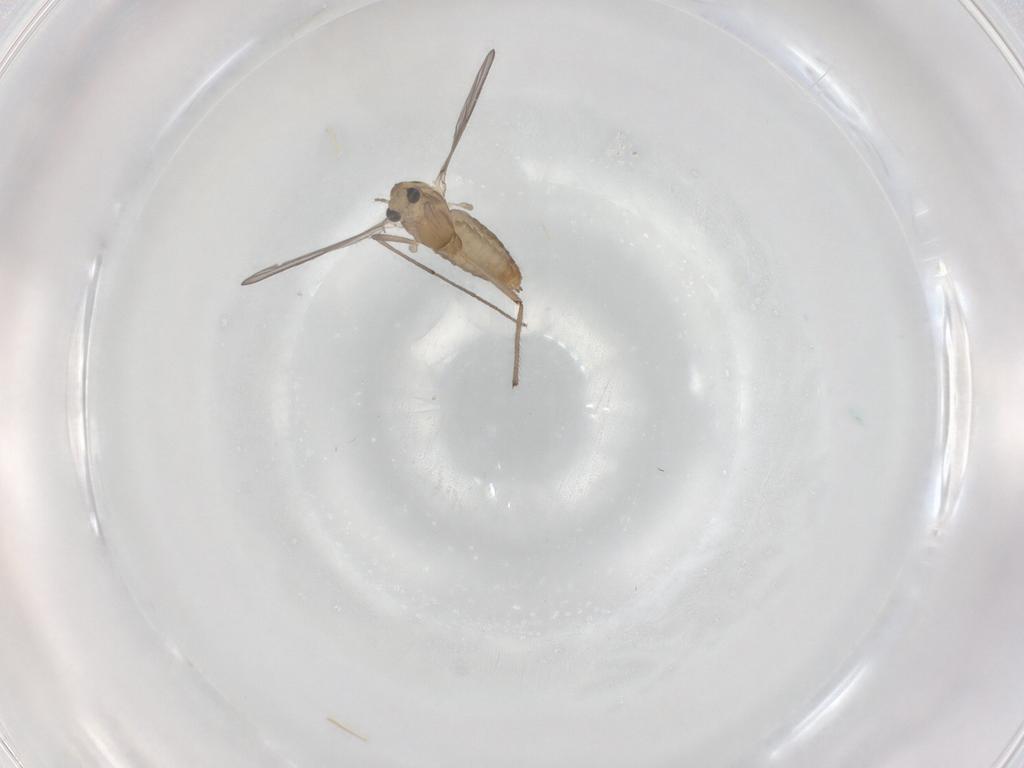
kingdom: Animalia
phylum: Arthropoda
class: Insecta
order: Diptera
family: Chironomidae
